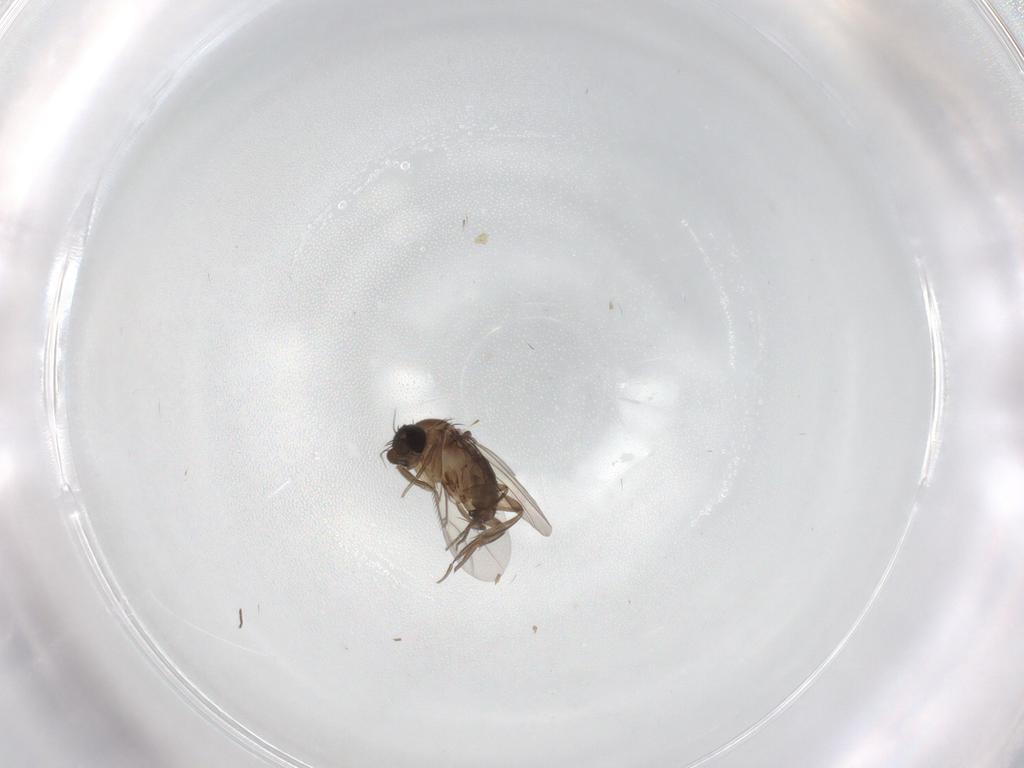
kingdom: Animalia
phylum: Arthropoda
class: Insecta
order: Diptera
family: Phoridae
